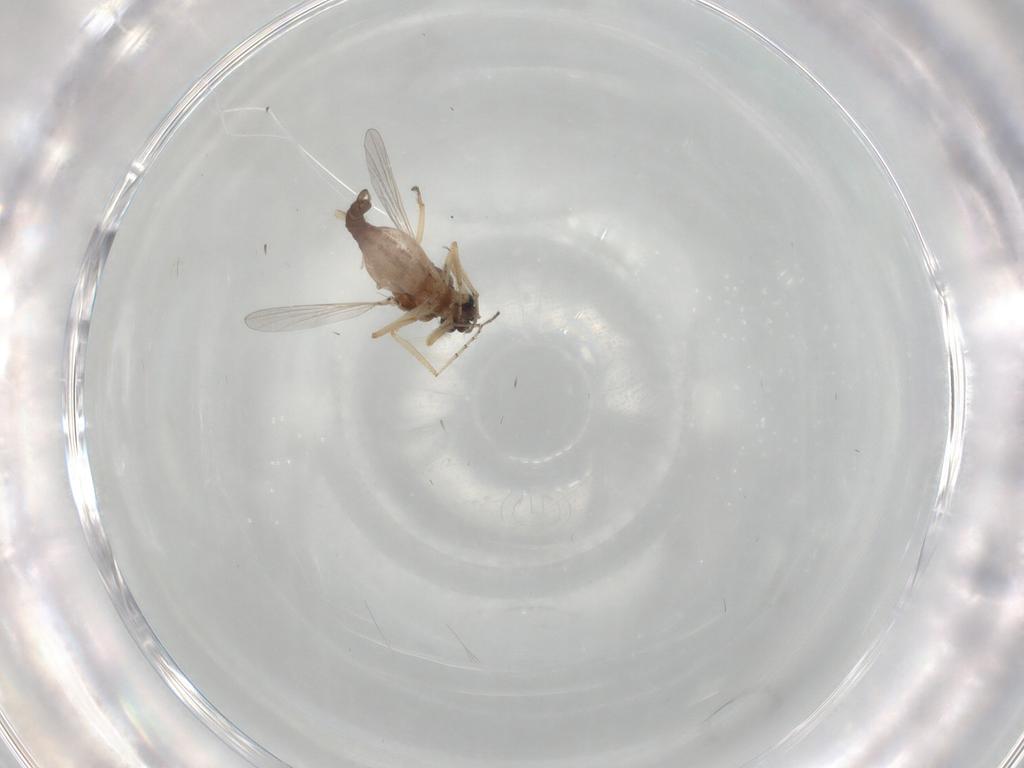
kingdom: Animalia
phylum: Arthropoda
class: Insecta
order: Diptera
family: Ceratopogonidae
